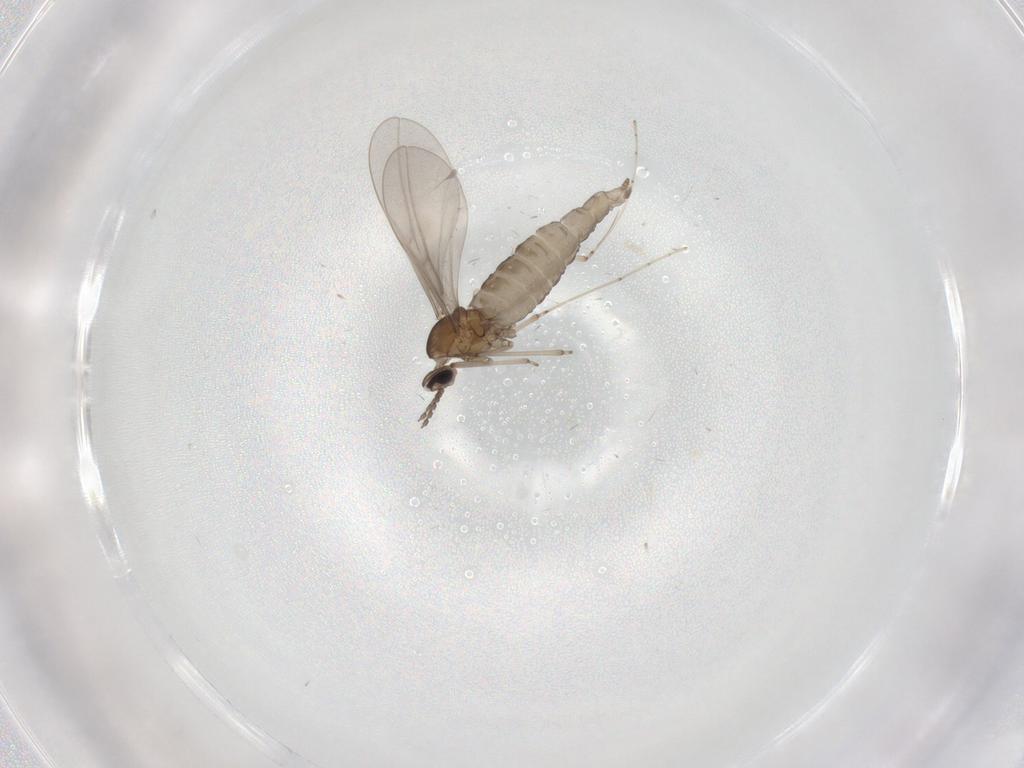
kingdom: Animalia
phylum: Arthropoda
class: Insecta
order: Diptera
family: Cecidomyiidae
